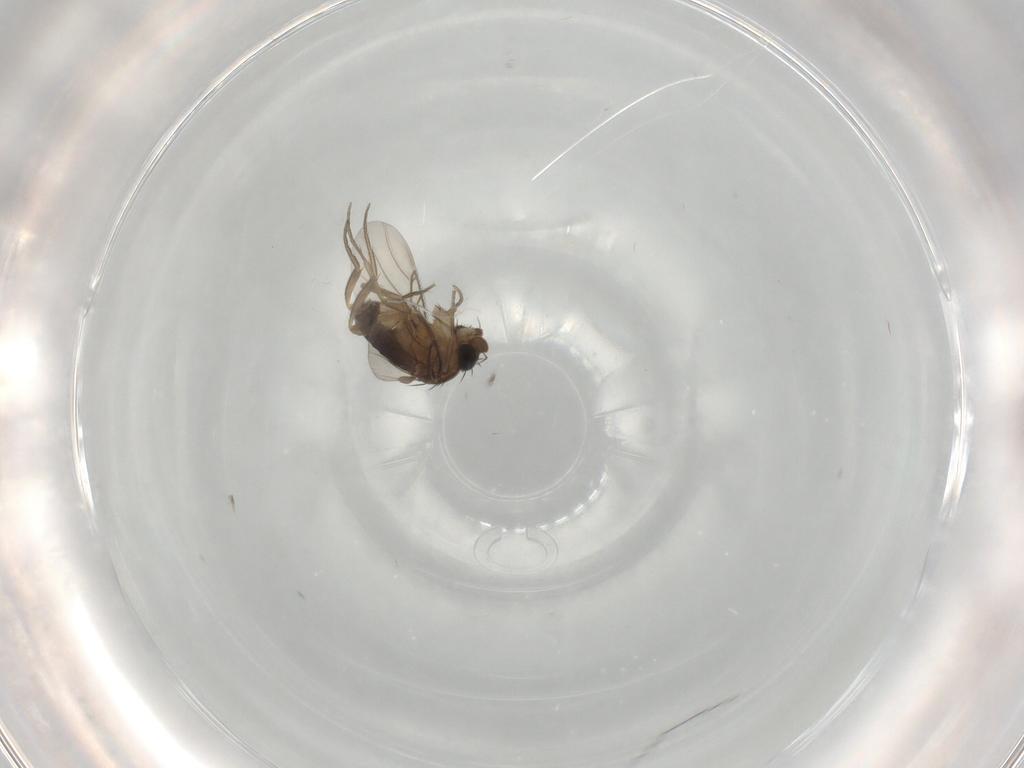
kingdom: Animalia
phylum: Arthropoda
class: Insecta
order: Diptera
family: Phoridae
